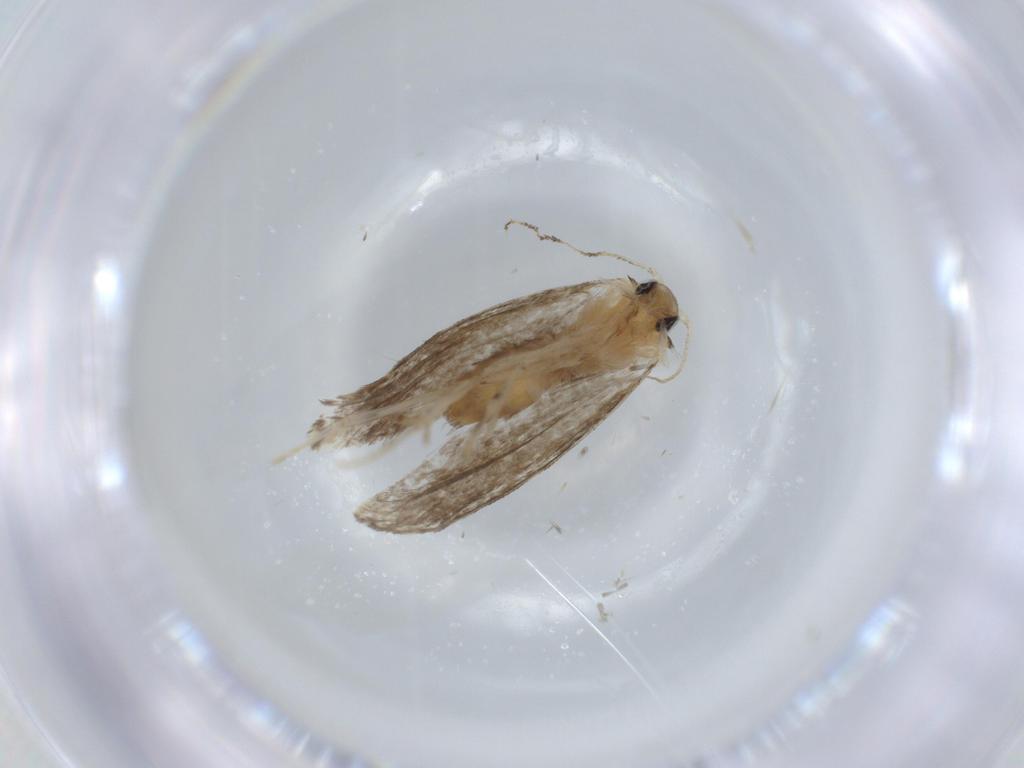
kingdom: Animalia
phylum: Arthropoda
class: Insecta
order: Lepidoptera
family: Tineidae
